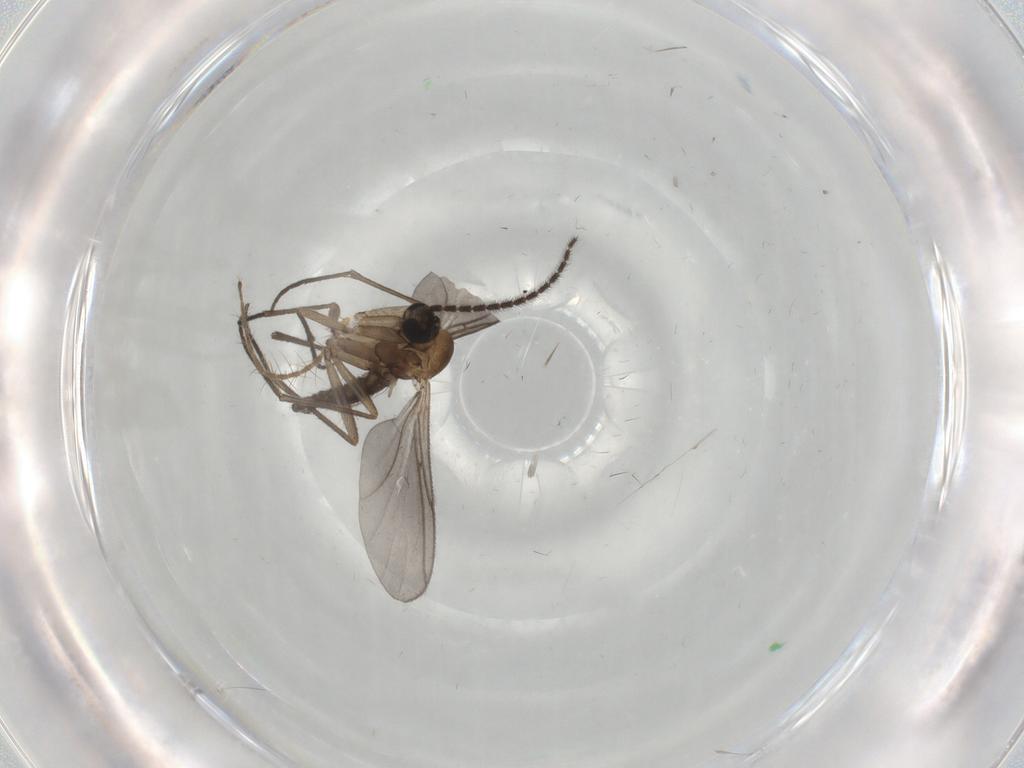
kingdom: Animalia
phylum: Arthropoda
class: Insecta
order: Diptera
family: Sciaridae
